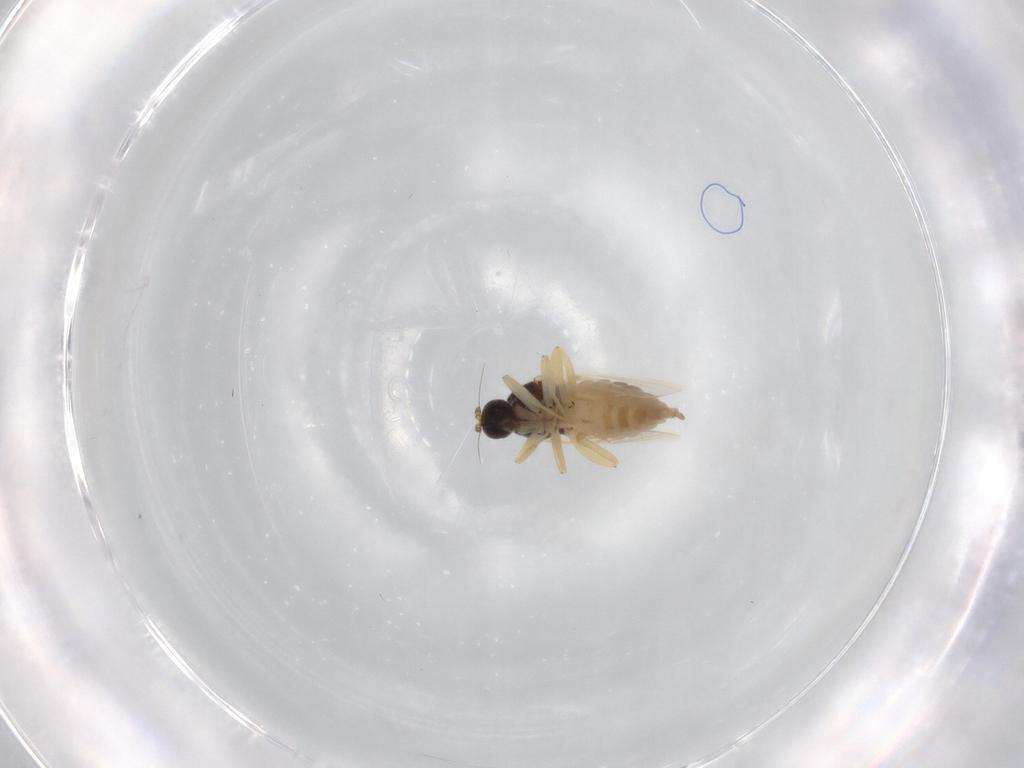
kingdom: Animalia
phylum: Arthropoda
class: Insecta
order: Diptera
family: Hybotidae
